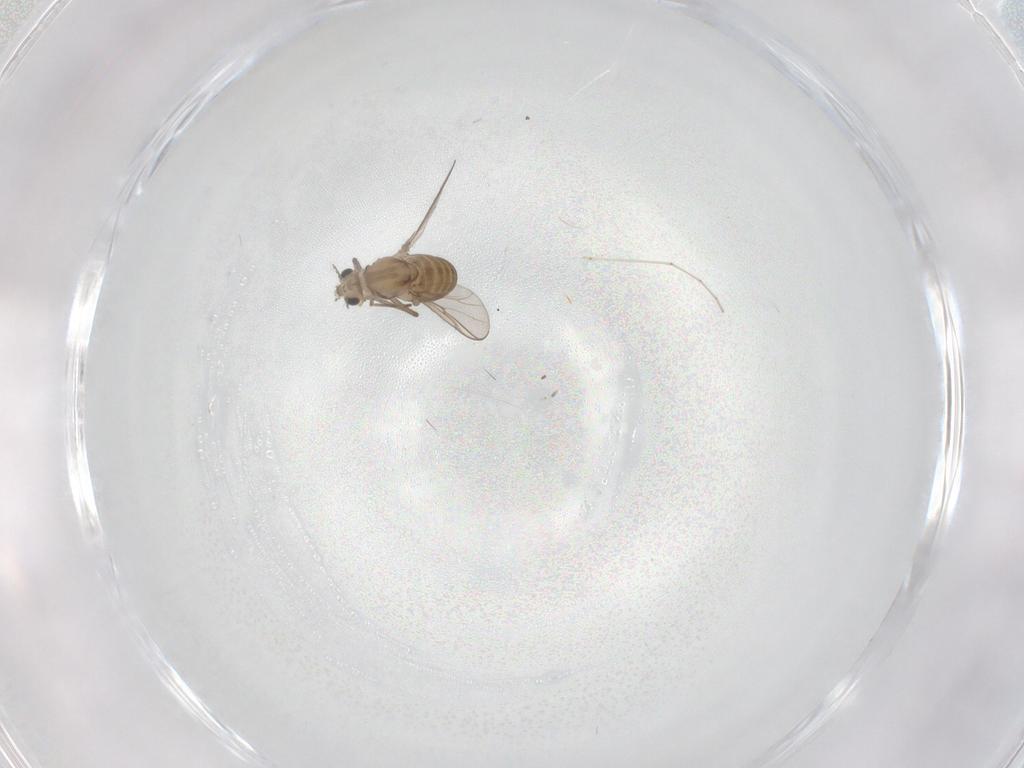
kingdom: Animalia
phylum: Arthropoda
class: Insecta
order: Diptera
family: Chironomidae
